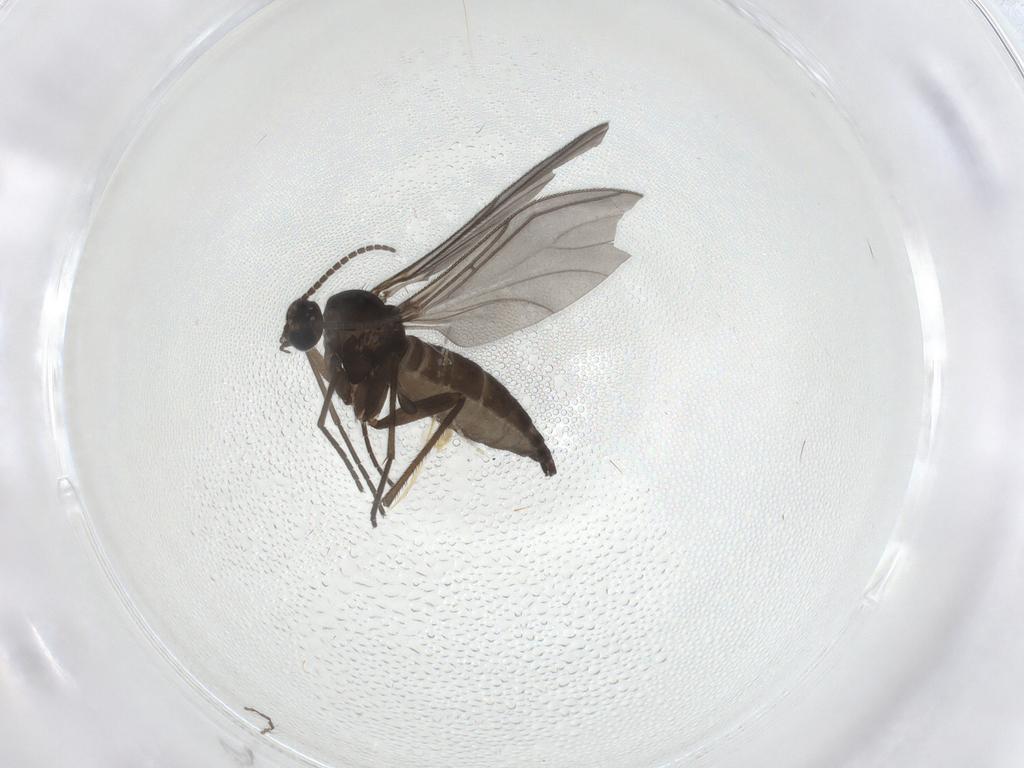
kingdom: Animalia
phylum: Arthropoda
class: Insecta
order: Diptera
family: Sciaridae
